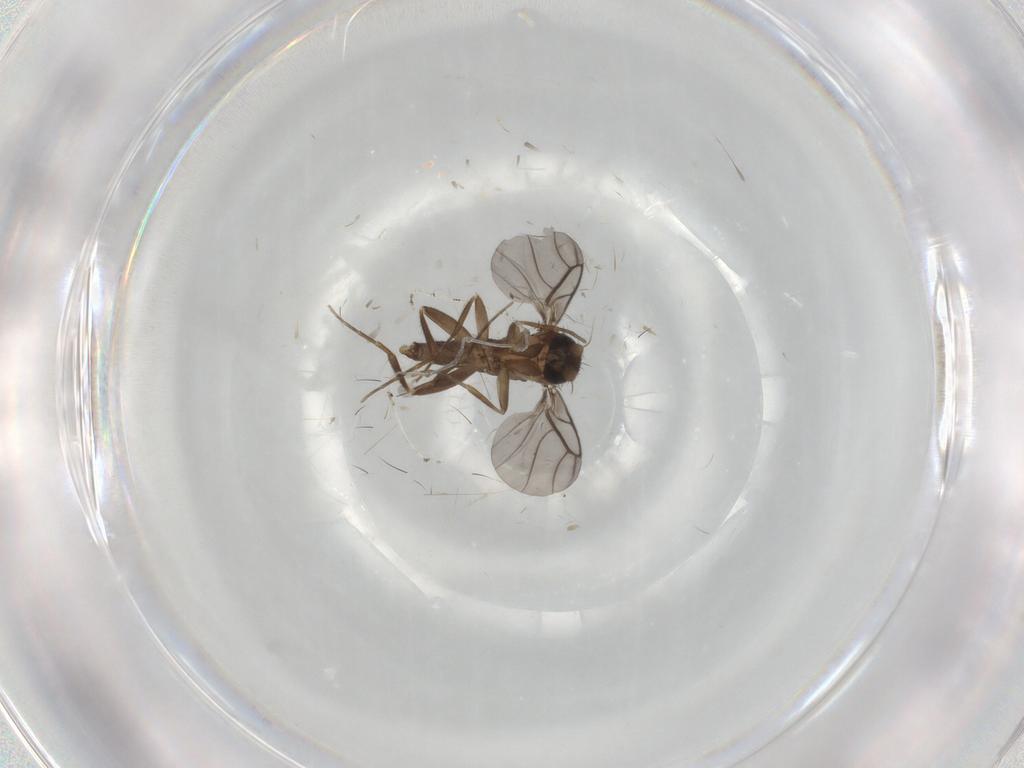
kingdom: Animalia
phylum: Arthropoda
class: Insecta
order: Diptera
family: Cecidomyiidae
